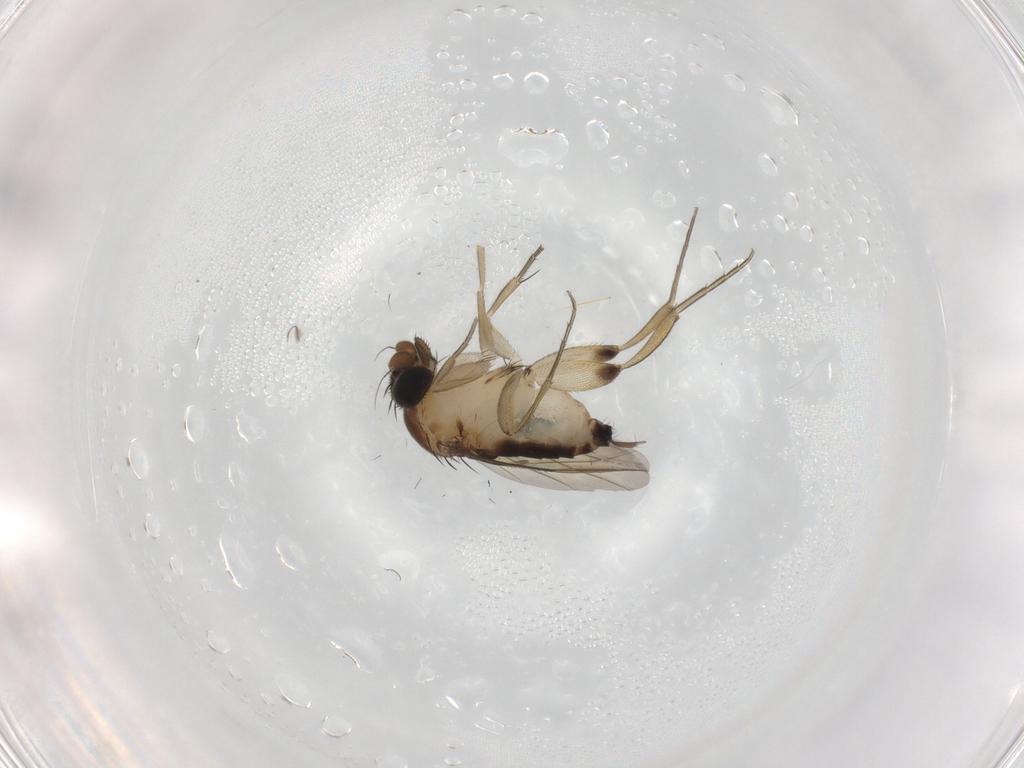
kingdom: Animalia
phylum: Arthropoda
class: Insecta
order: Diptera
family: Phoridae
